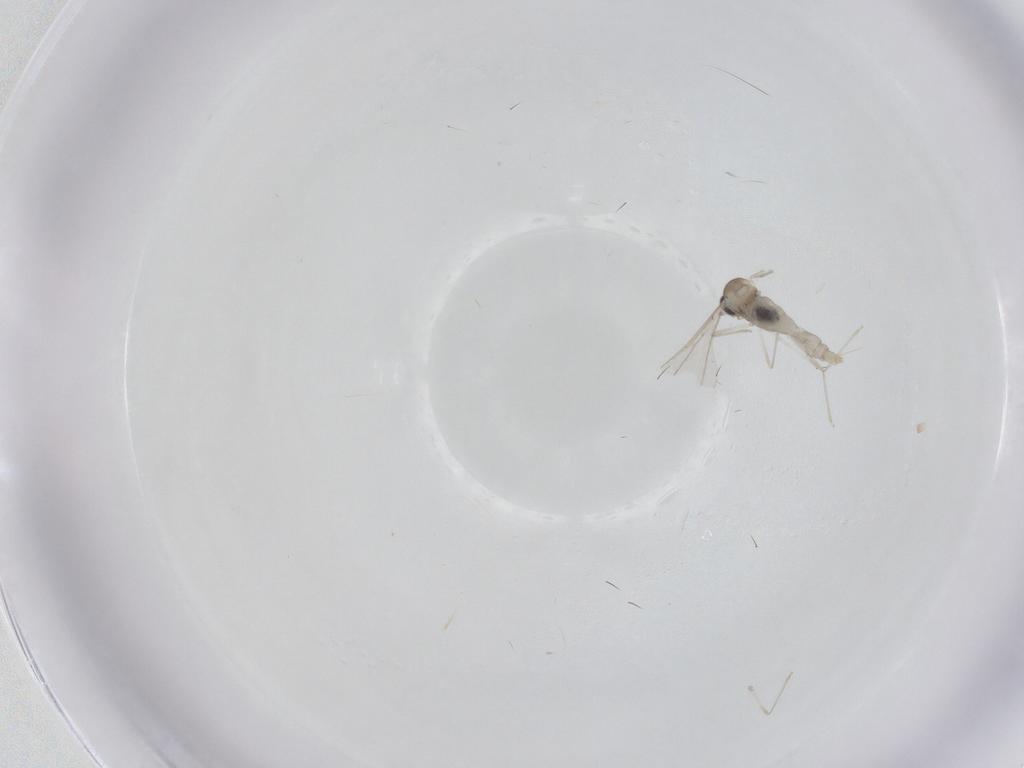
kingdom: Animalia
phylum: Arthropoda
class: Insecta
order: Diptera
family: Cecidomyiidae
